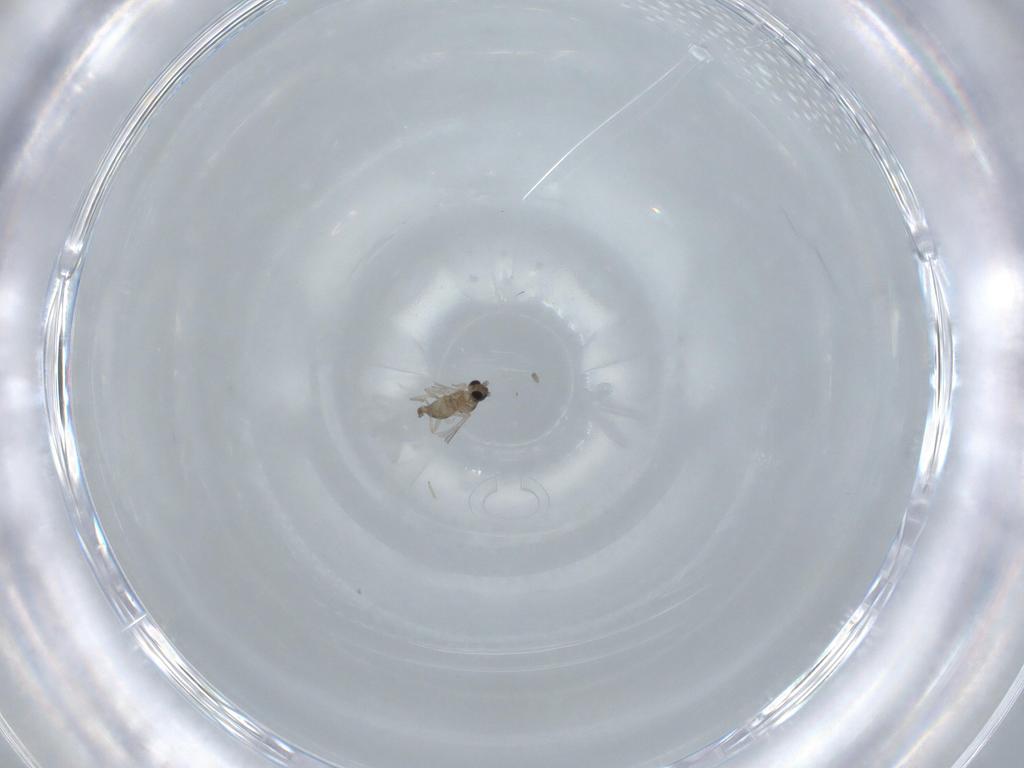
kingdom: Animalia
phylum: Arthropoda
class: Insecta
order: Diptera
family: Cecidomyiidae
